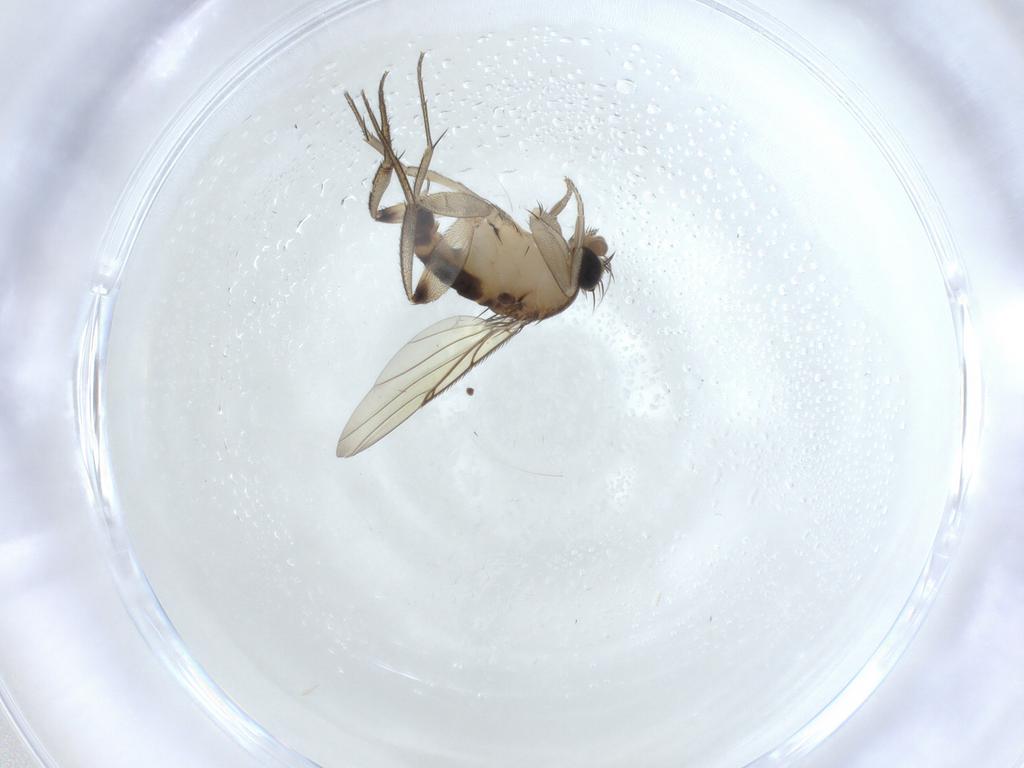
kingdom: Animalia
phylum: Arthropoda
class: Insecta
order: Diptera
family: Phoridae
